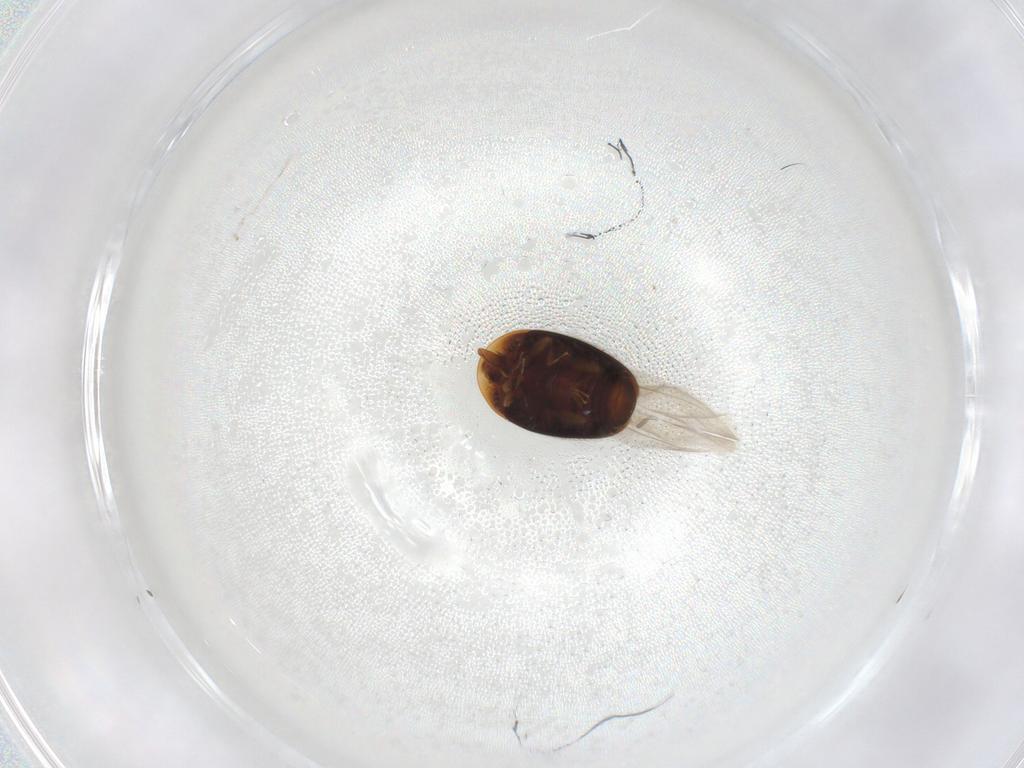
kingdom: Animalia
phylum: Arthropoda
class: Insecta
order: Coleoptera
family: Corylophidae
